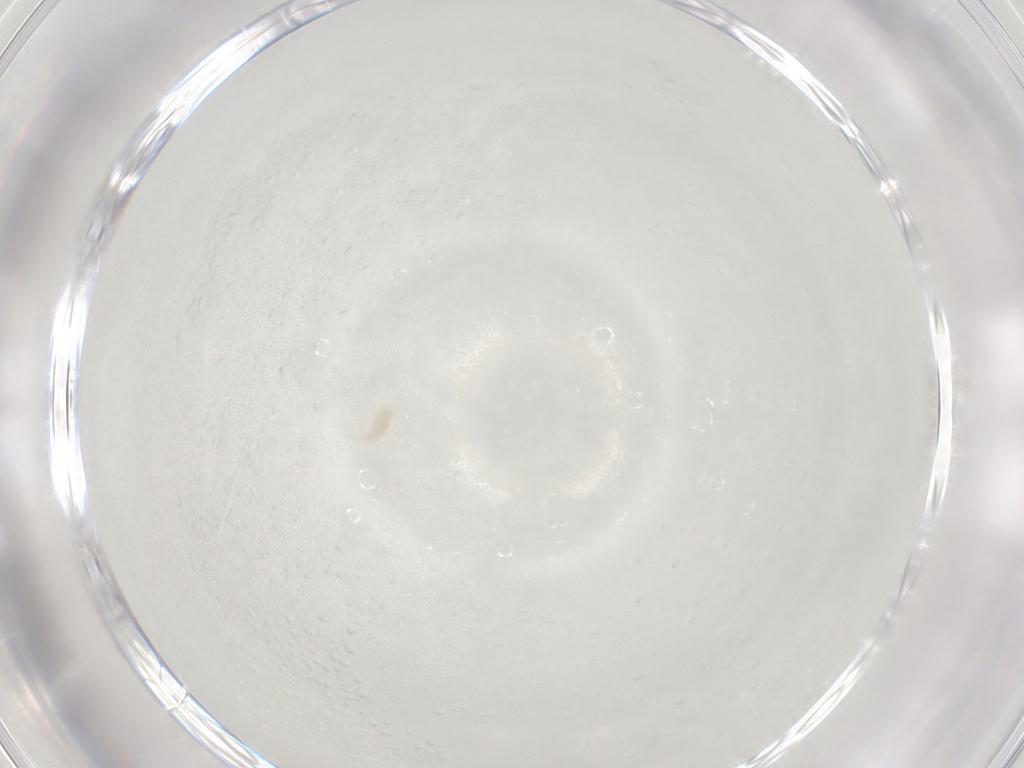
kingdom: Animalia
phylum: Arthropoda
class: Arachnida
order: Trombidiformes
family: Eupodidae
